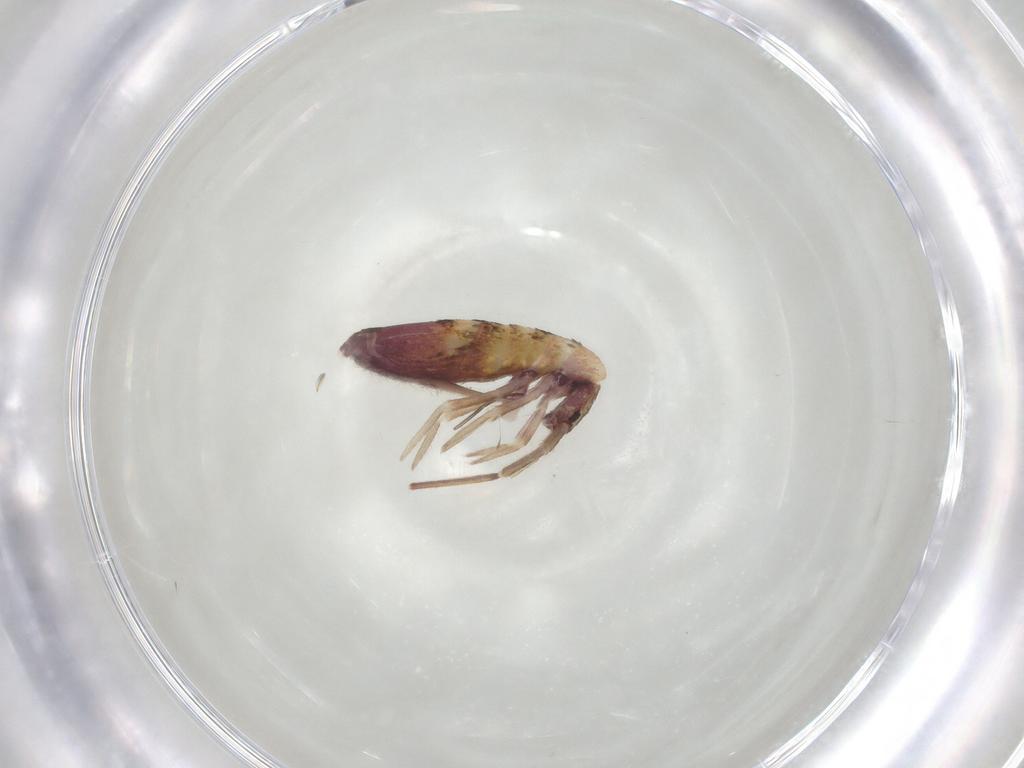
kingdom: Animalia
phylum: Arthropoda
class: Collembola
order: Entomobryomorpha
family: Entomobryidae
